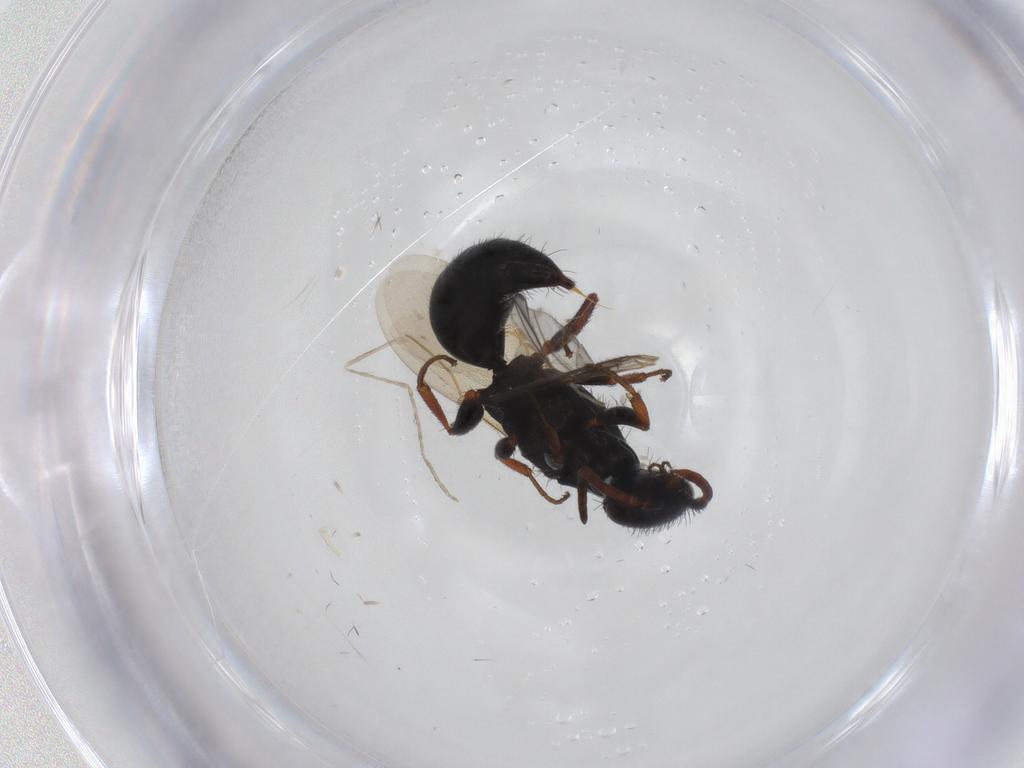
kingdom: Animalia
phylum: Arthropoda
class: Insecta
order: Hymenoptera
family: Bethylidae
